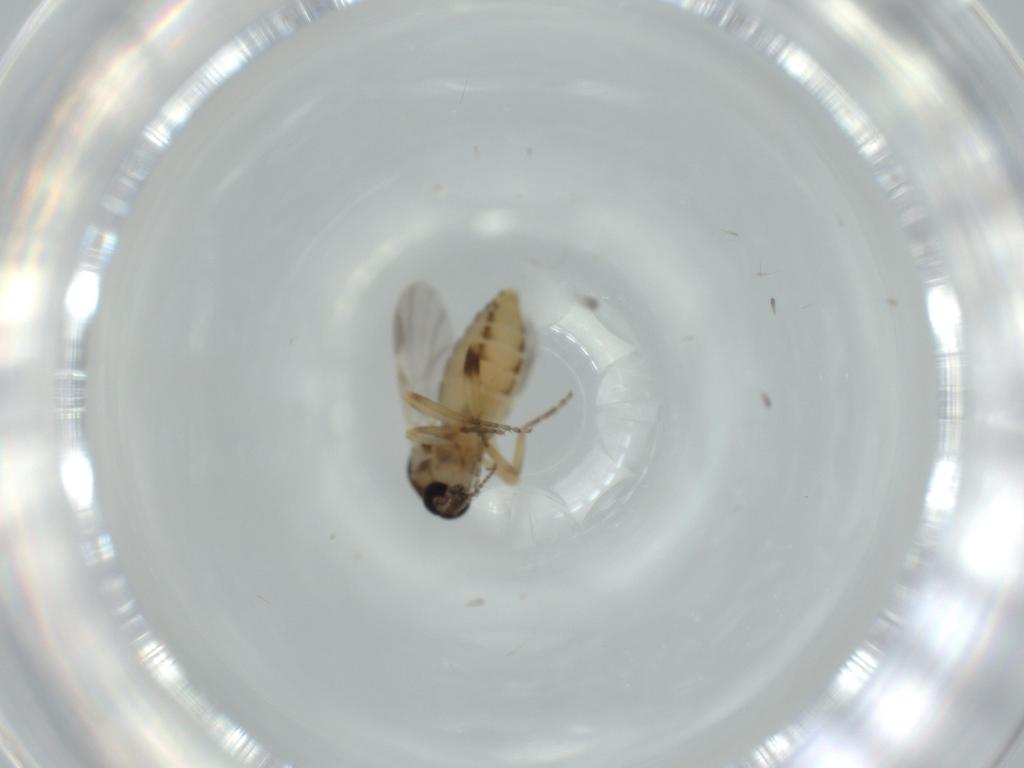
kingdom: Animalia
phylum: Arthropoda
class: Insecta
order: Diptera
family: Ceratopogonidae
